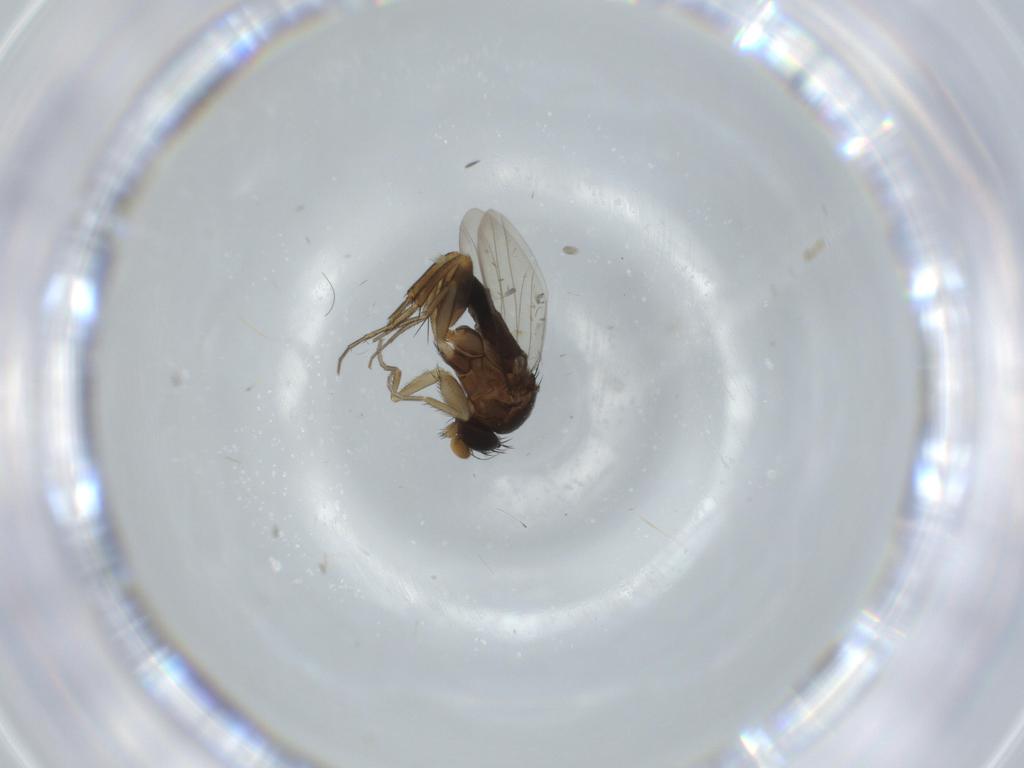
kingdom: Animalia
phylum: Arthropoda
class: Insecta
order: Diptera
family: Phoridae
